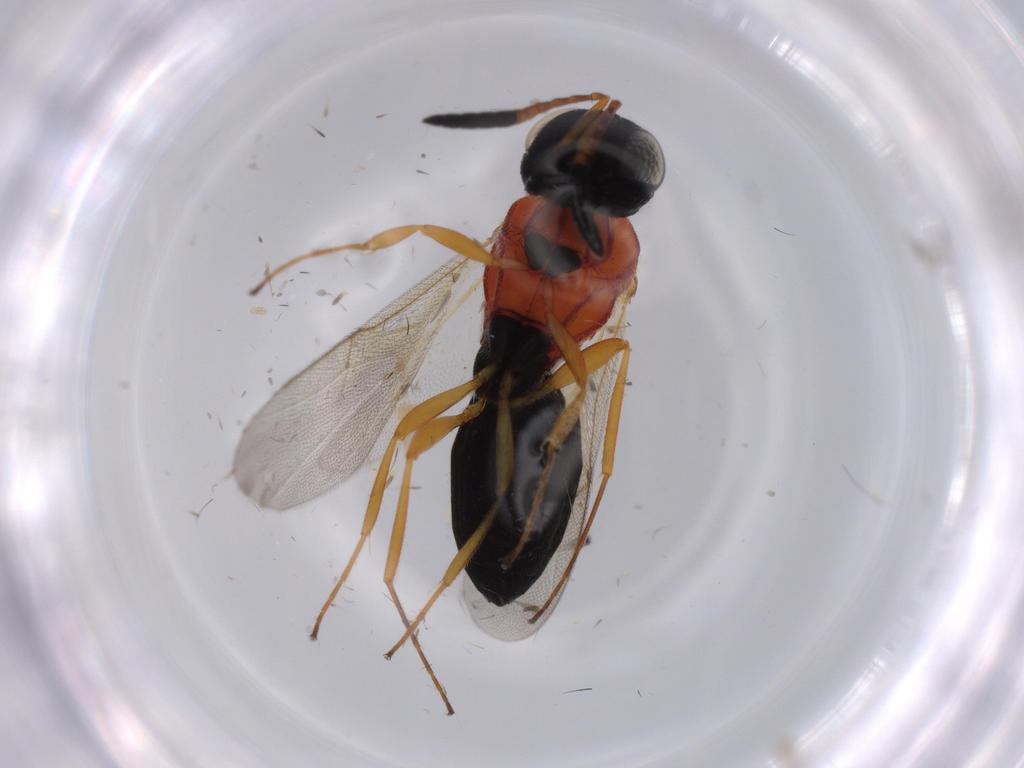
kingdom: Animalia
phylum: Arthropoda
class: Insecta
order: Hymenoptera
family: Scelionidae
